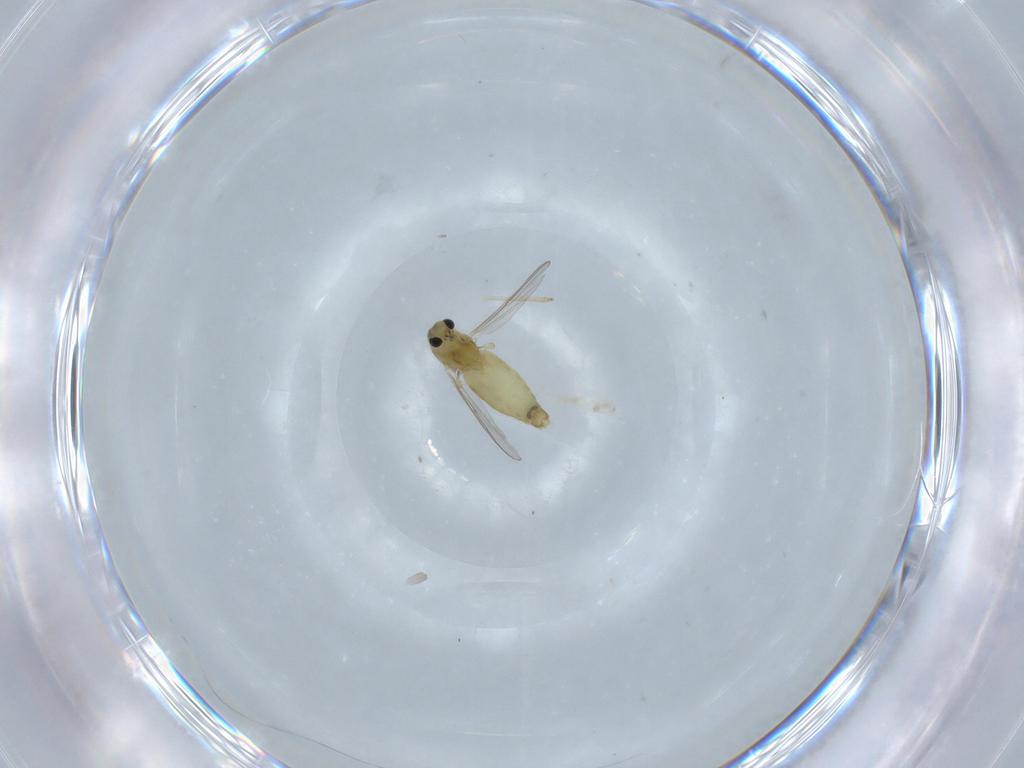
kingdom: Animalia
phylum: Arthropoda
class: Insecta
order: Diptera
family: Chironomidae
